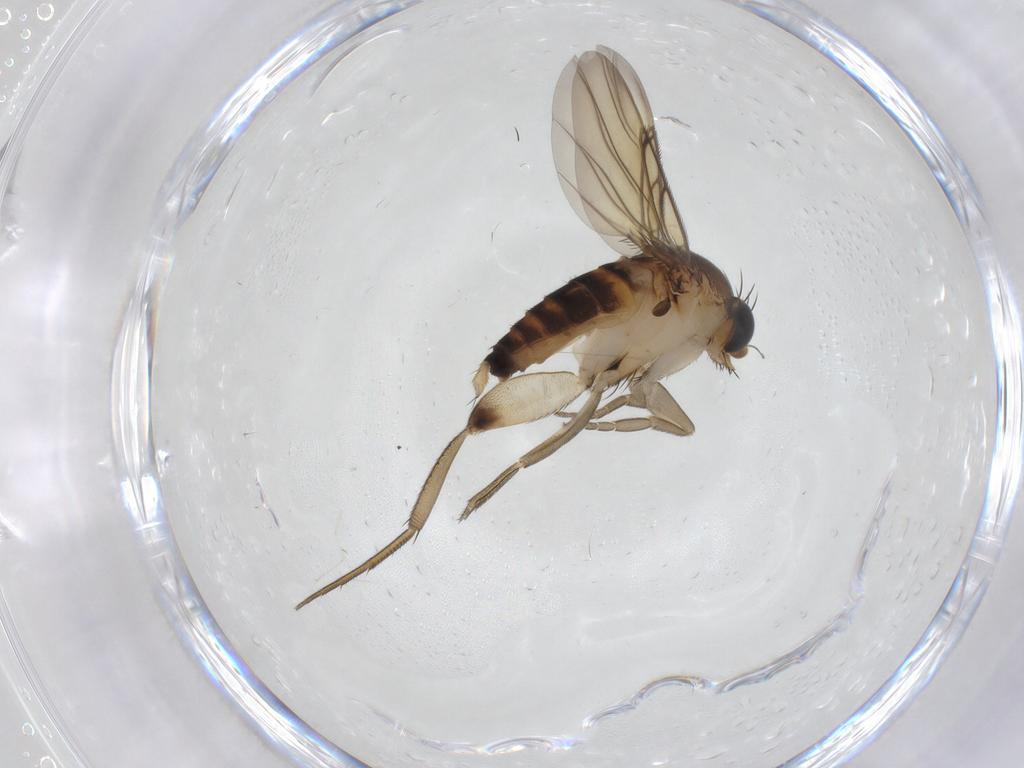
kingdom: Animalia
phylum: Arthropoda
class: Insecta
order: Diptera
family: Phoridae
